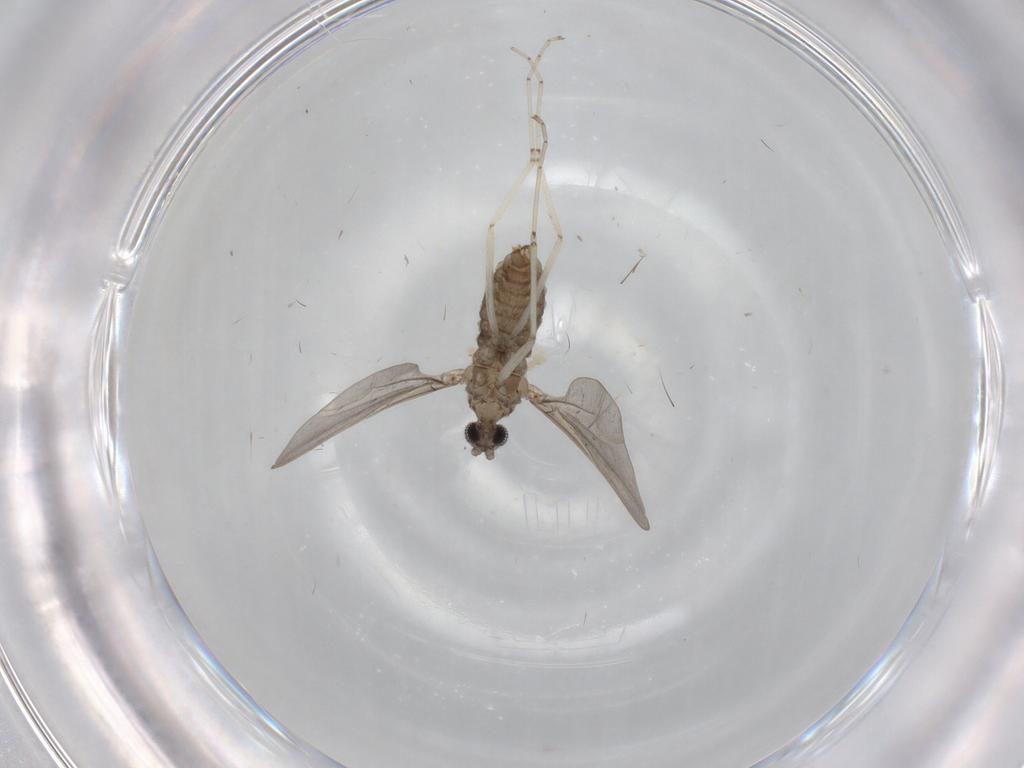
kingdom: Animalia
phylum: Arthropoda
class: Insecta
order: Diptera
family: Cecidomyiidae
